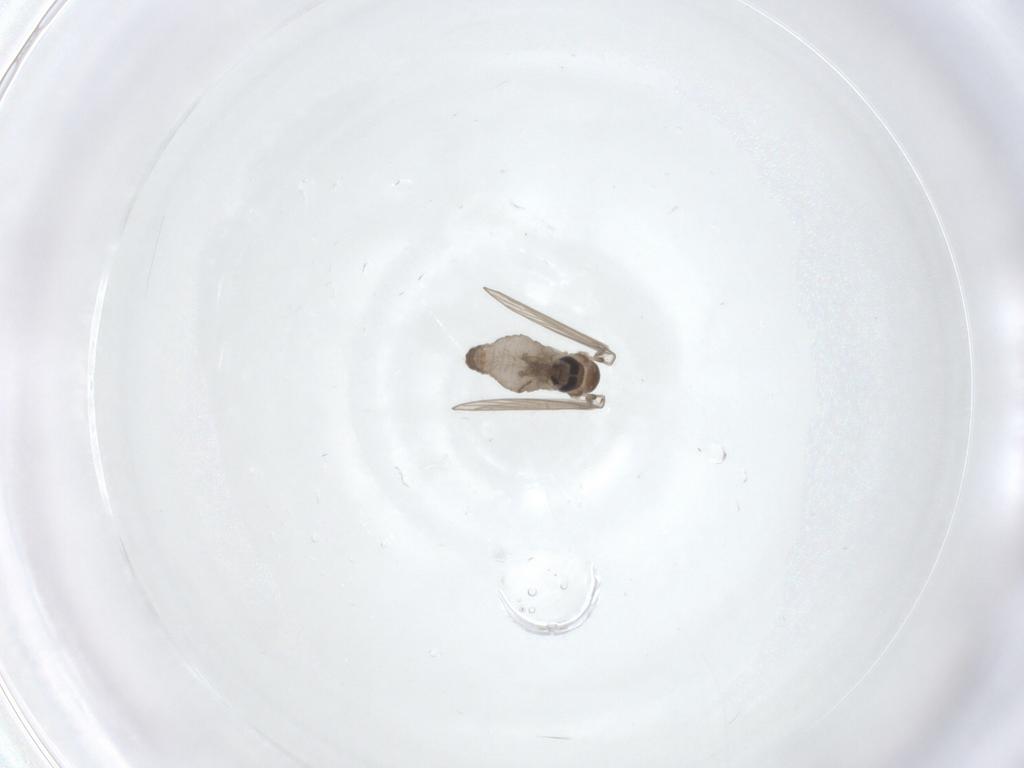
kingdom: Animalia
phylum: Arthropoda
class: Insecta
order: Diptera
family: Psychodidae
